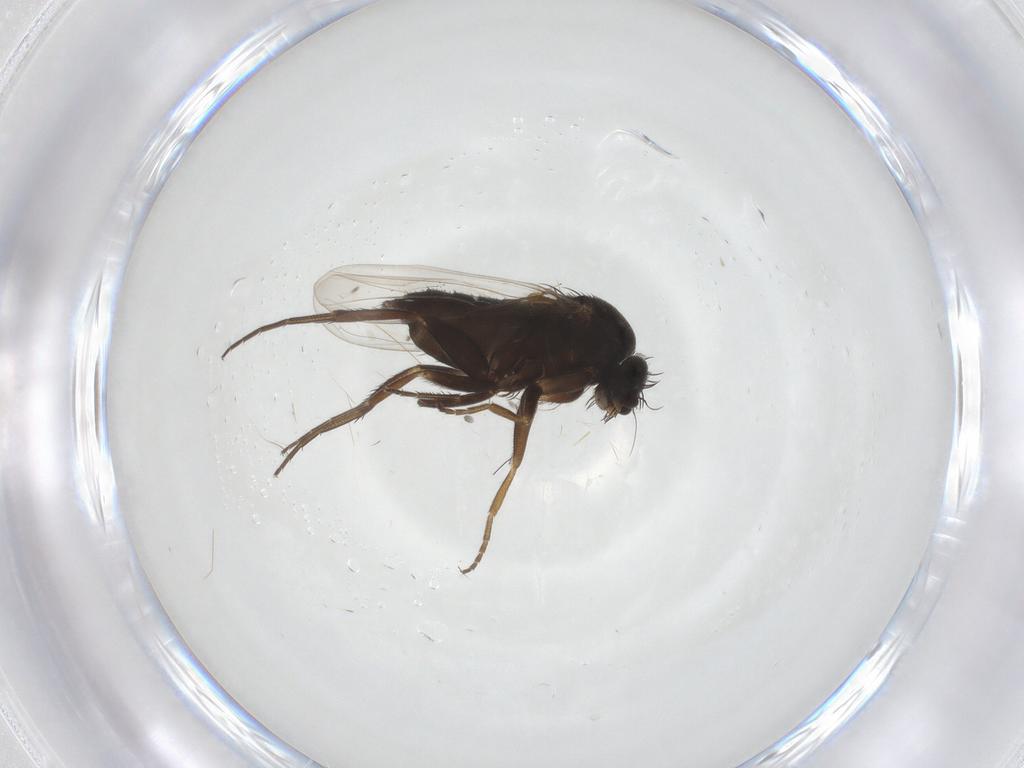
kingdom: Animalia
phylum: Arthropoda
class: Insecta
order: Diptera
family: Phoridae
